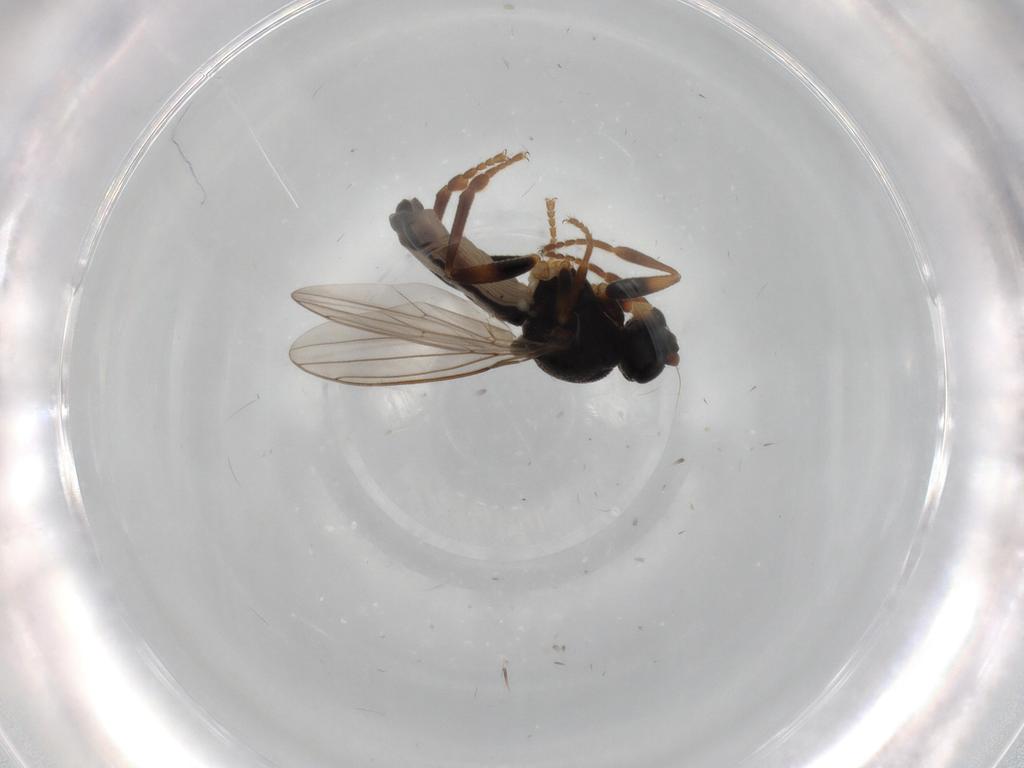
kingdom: Animalia
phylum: Arthropoda
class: Insecta
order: Diptera
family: Sphaeroceridae
